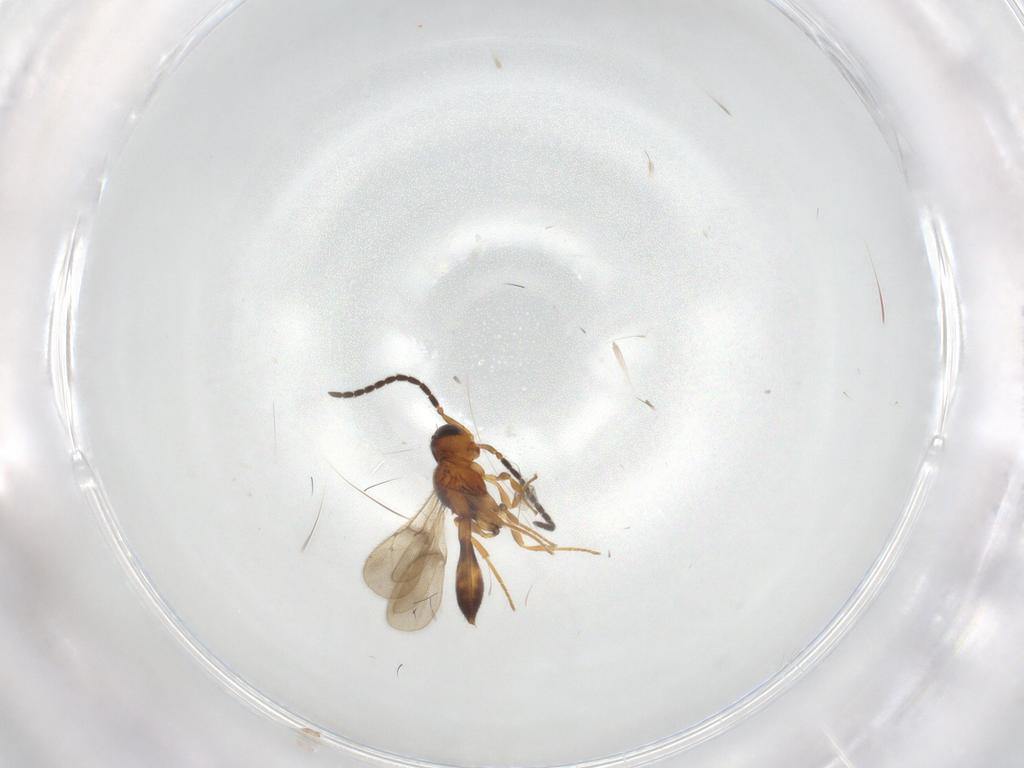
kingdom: Animalia
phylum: Arthropoda
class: Insecta
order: Hymenoptera
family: Scelionidae
